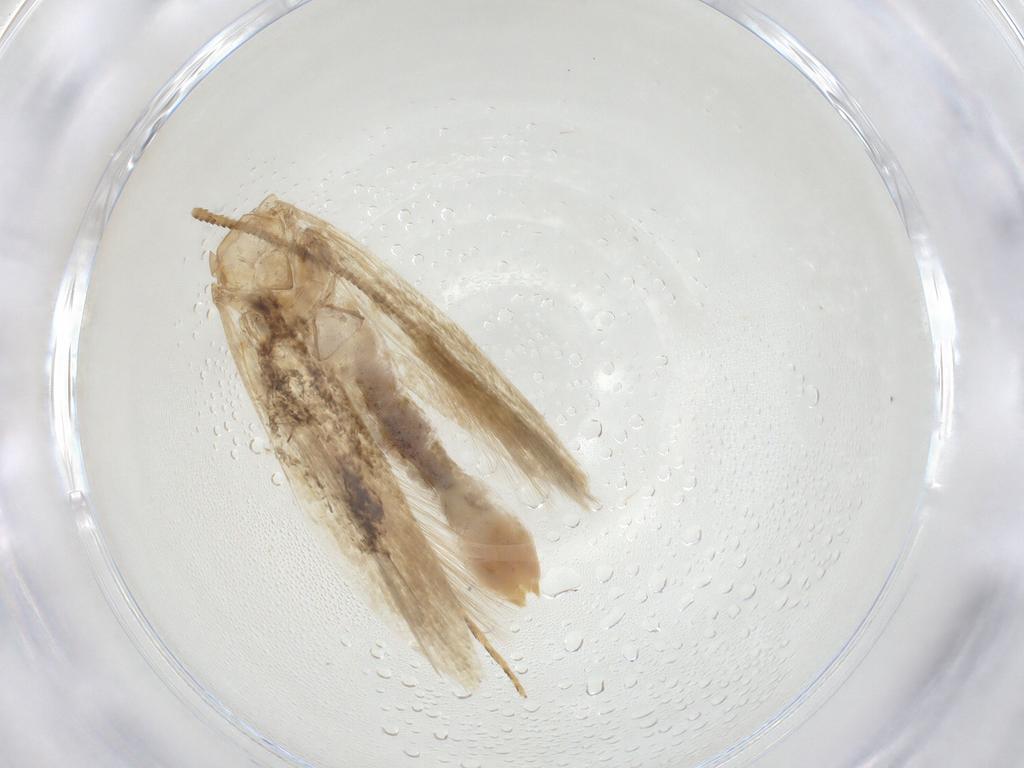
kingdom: Animalia
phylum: Arthropoda
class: Insecta
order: Lepidoptera
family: Gelechiidae
